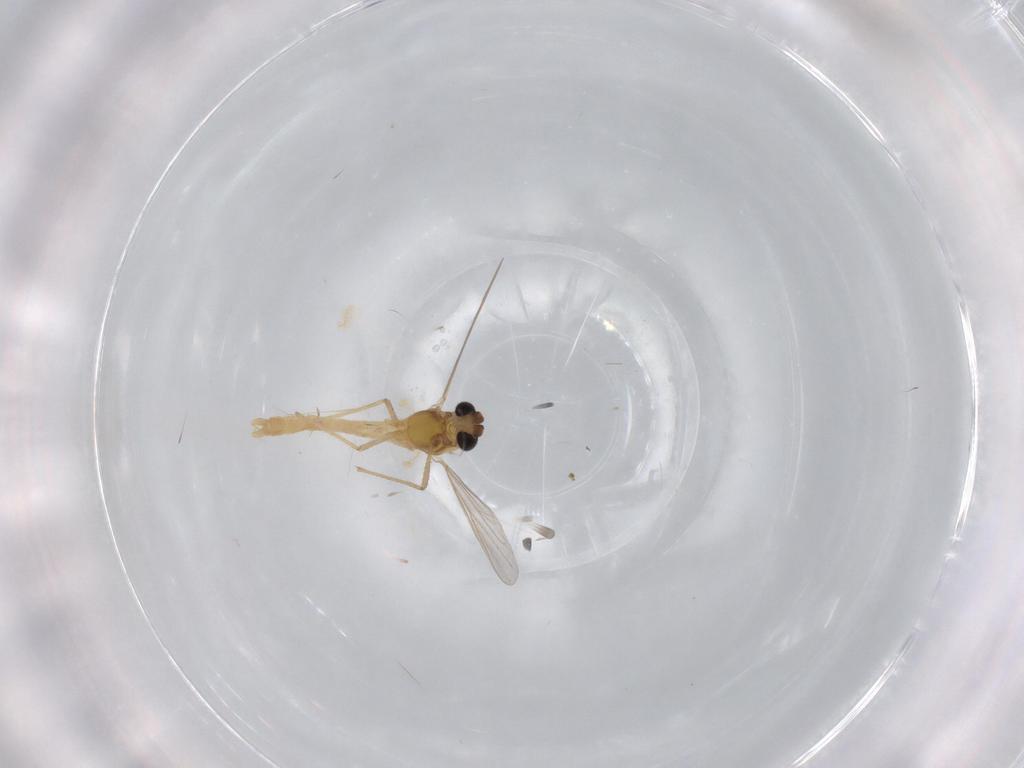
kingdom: Animalia
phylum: Arthropoda
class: Insecta
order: Diptera
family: Chironomidae
